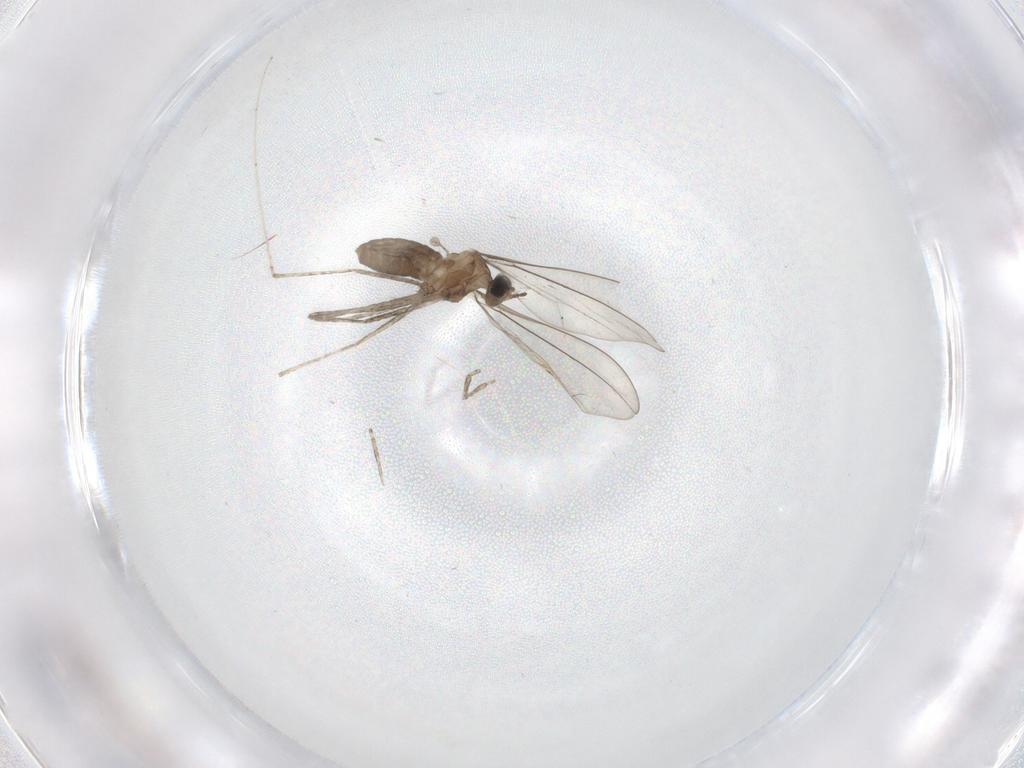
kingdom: Animalia
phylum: Arthropoda
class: Insecta
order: Diptera
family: Cecidomyiidae
